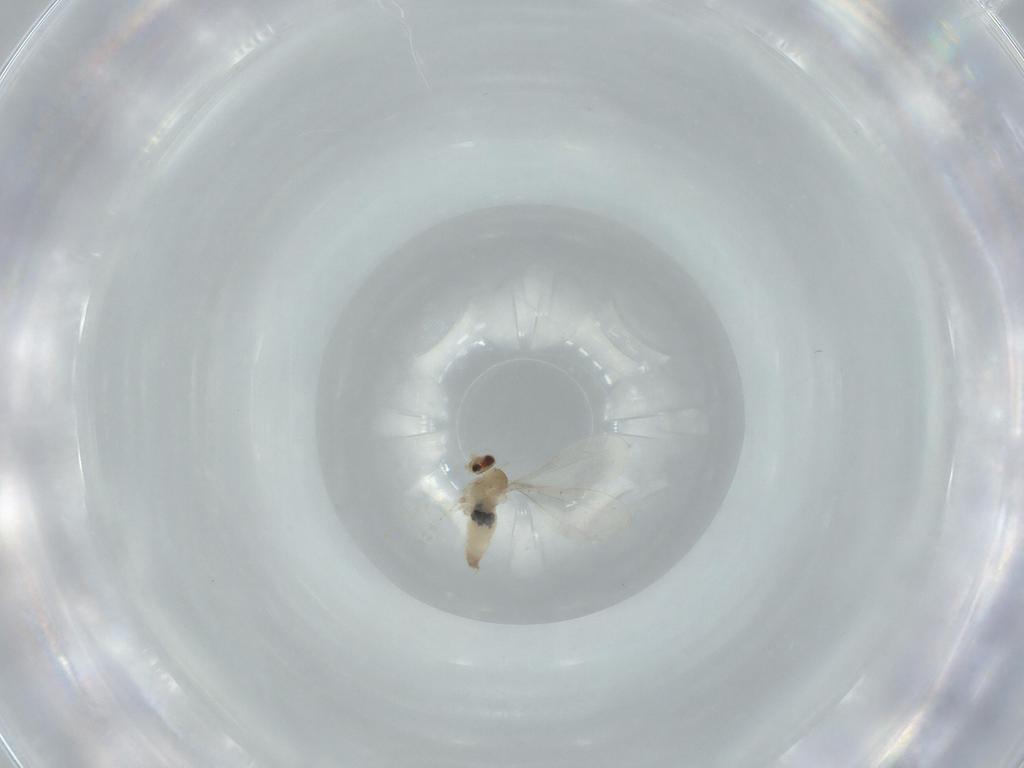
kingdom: Animalia
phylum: Arthropoda
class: Insecta
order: Diptera
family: Cecidomyiidae
